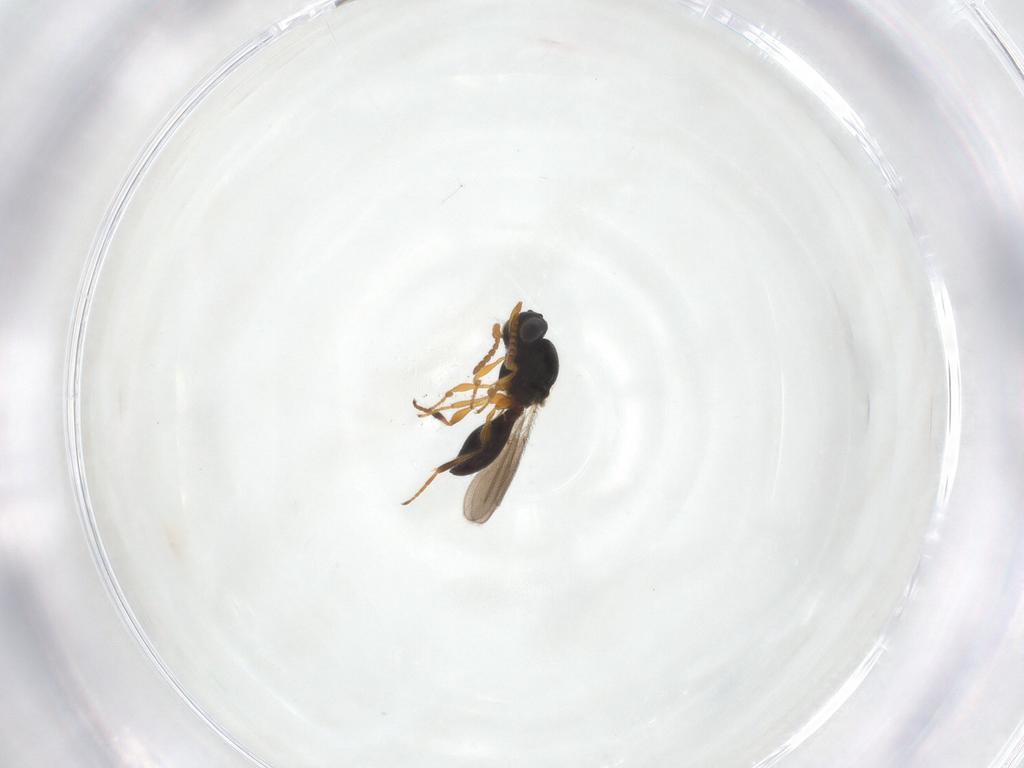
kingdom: Animalia
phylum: Arthropoda
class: Insecta
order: Hymenoptera
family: Platygastridae
